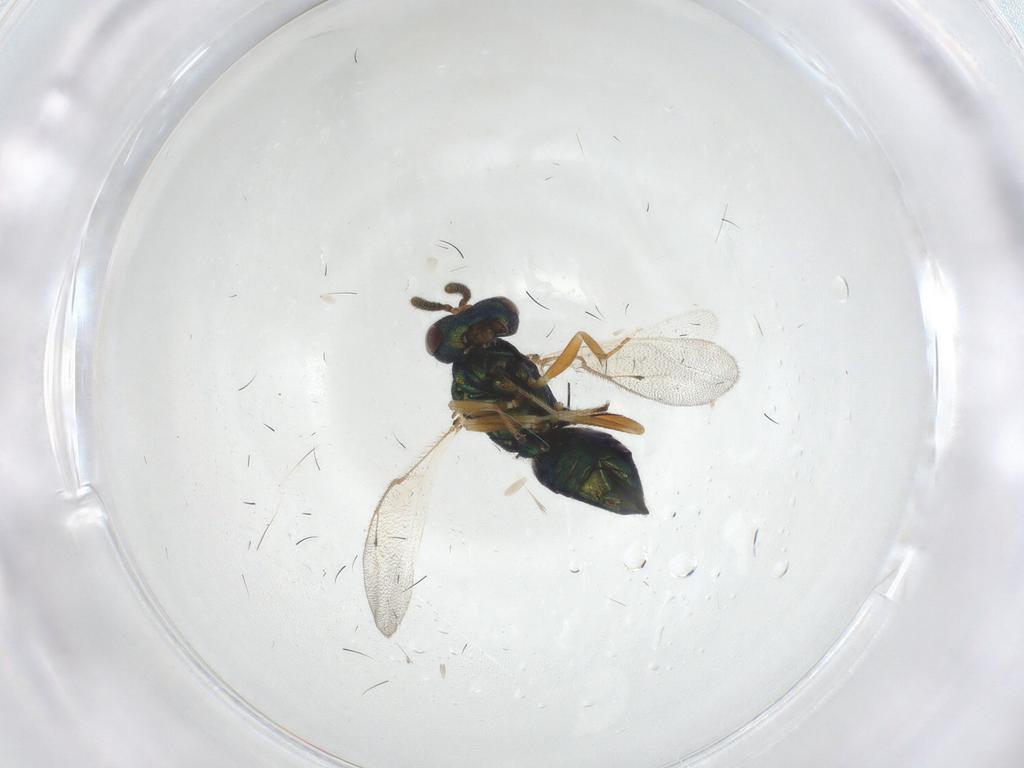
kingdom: Animalia
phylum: Arthropoda
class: Insecta
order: Hymenoptera
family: Pteromalidae
